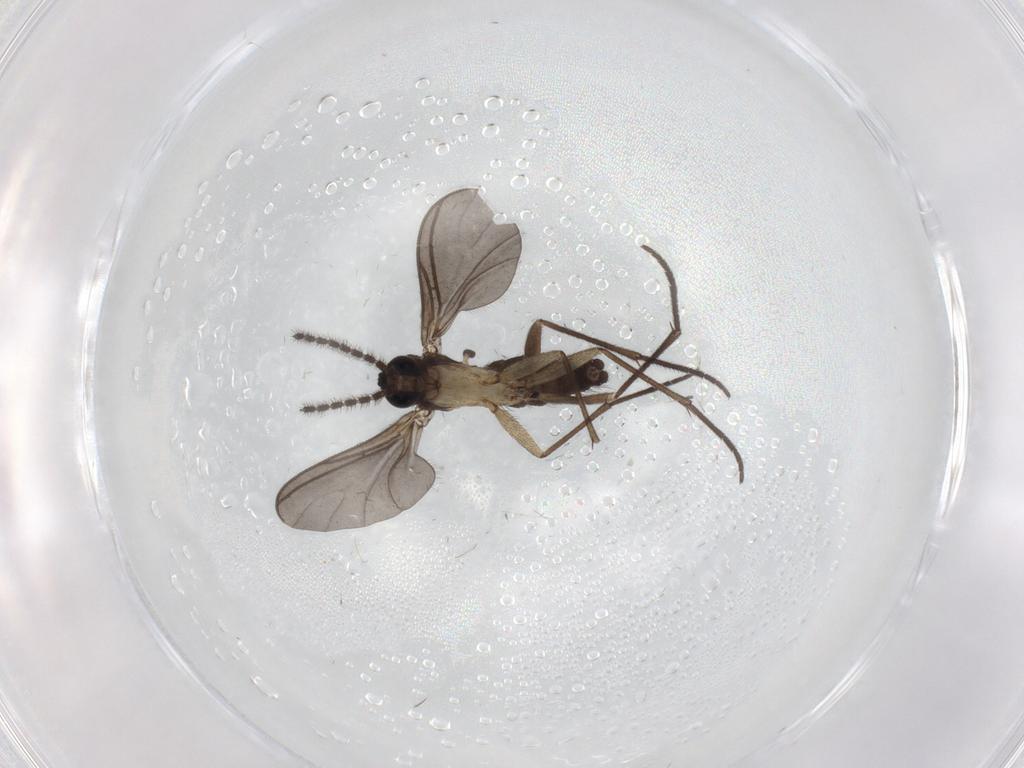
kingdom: Animalia
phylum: Arthropoda
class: Insecta
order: Diptera
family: Sciaridae
